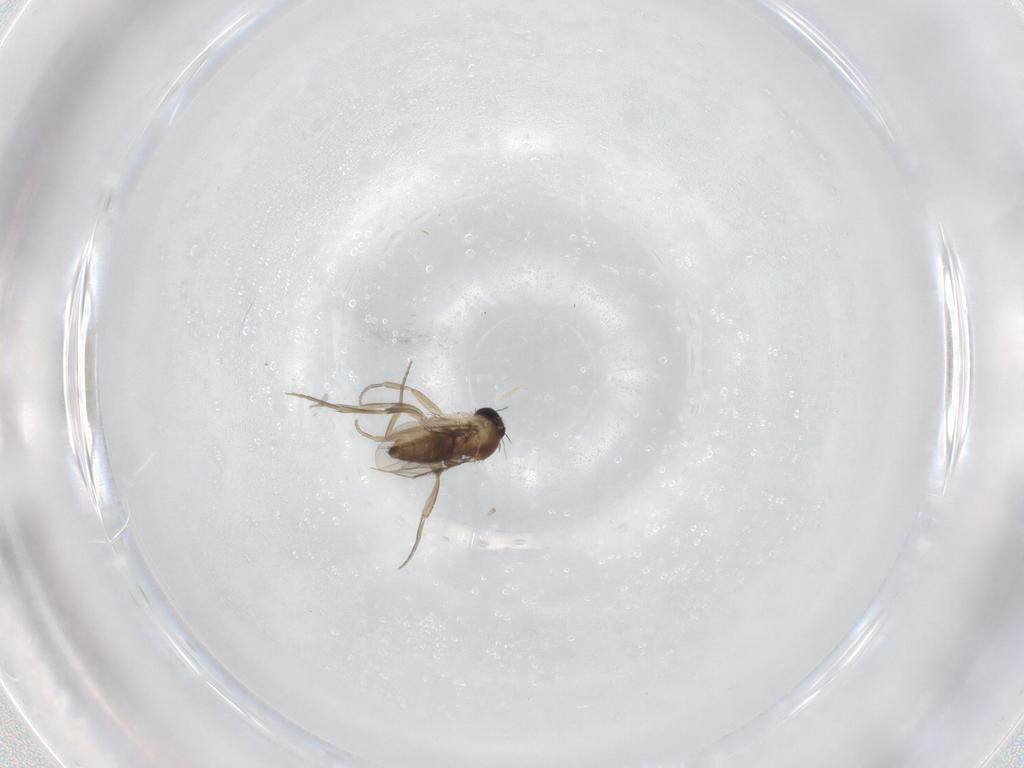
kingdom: Animalia
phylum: Arthropoda
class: Insecta
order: Diptera
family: Phoridae
